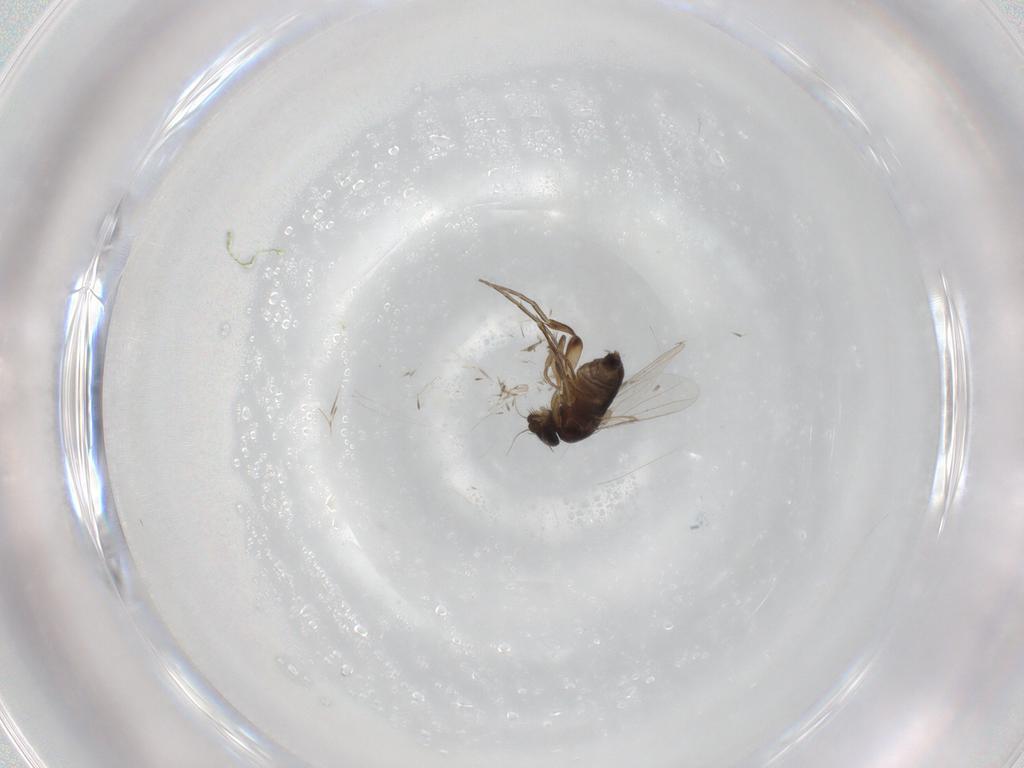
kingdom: Animalia
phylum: Arthropoda
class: Insecta
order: Diptera
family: Phoridae
